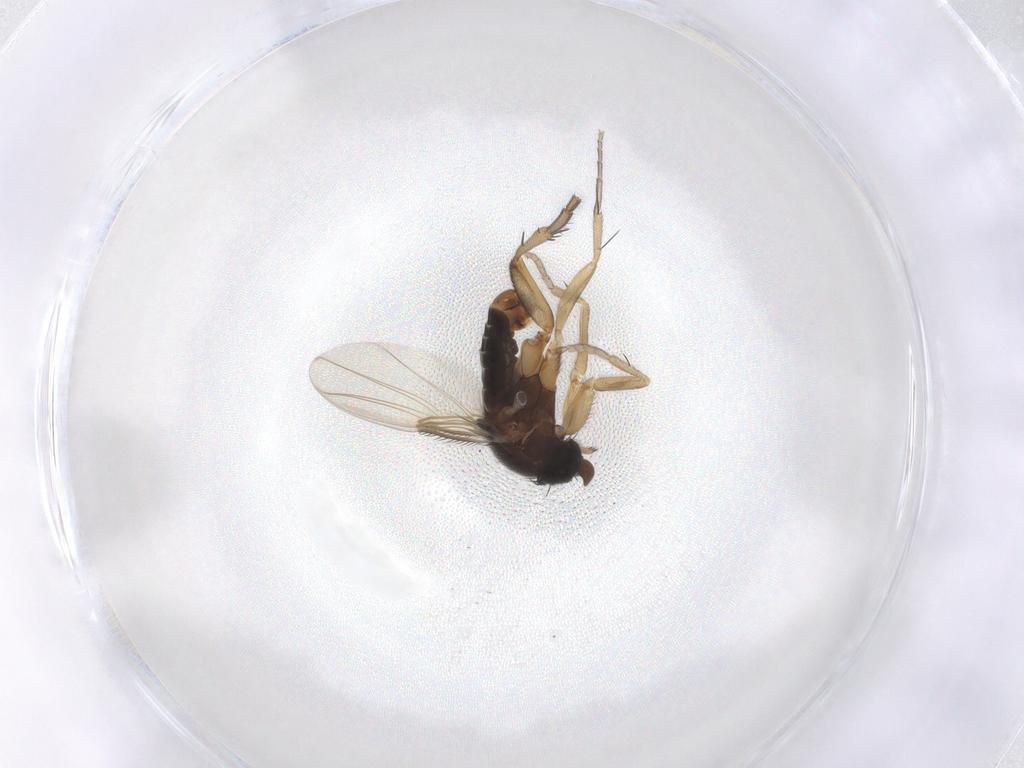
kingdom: Animalia
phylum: Arthropoda
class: Insecta
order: Diptera
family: Phoridae
